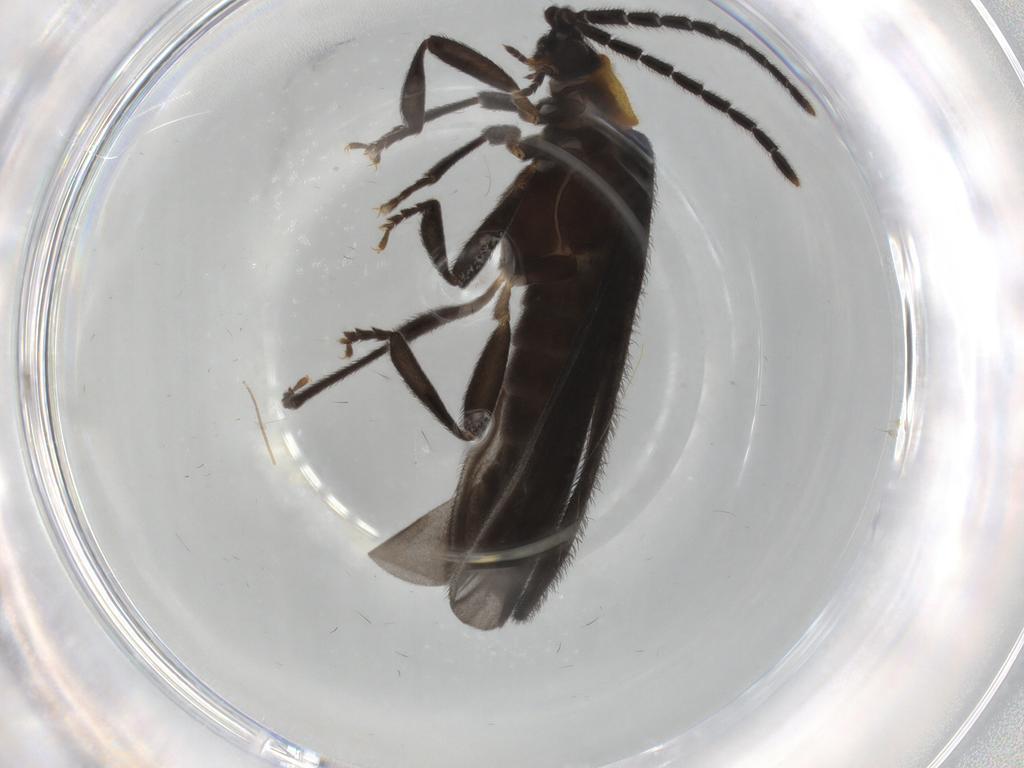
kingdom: Animalia
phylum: Arthropoda
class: Insecta
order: Coleoptera
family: Lycidae
